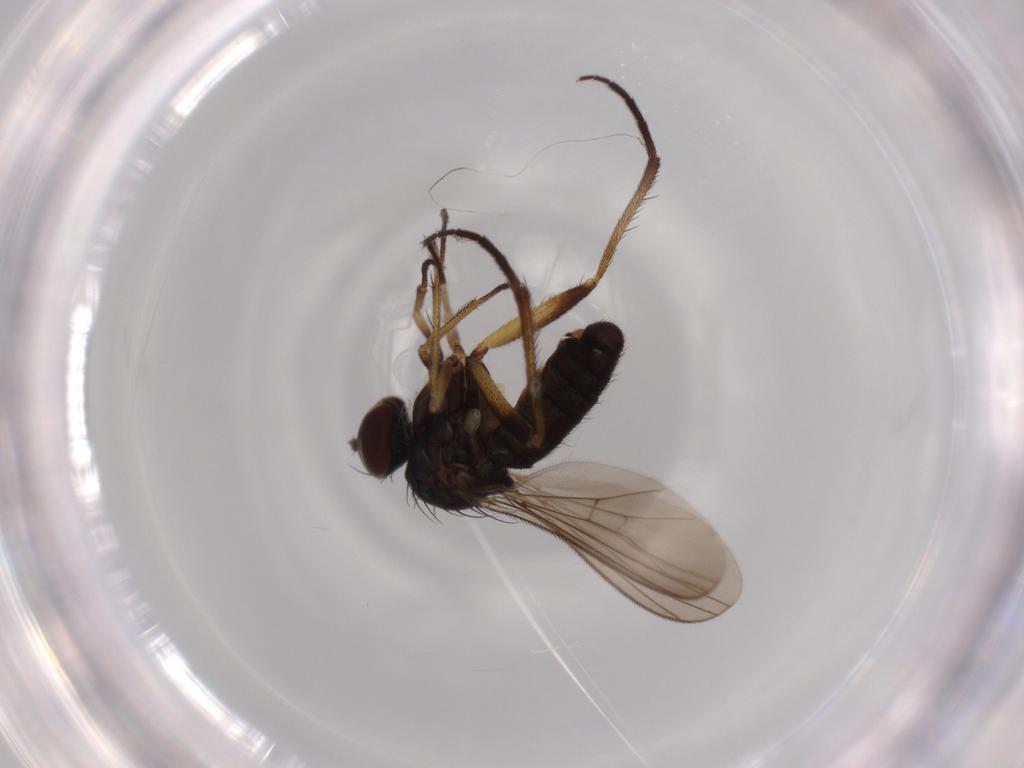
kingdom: Animalia
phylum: Arthropoda
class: Insecta
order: Diptera
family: Dolichopodidae
